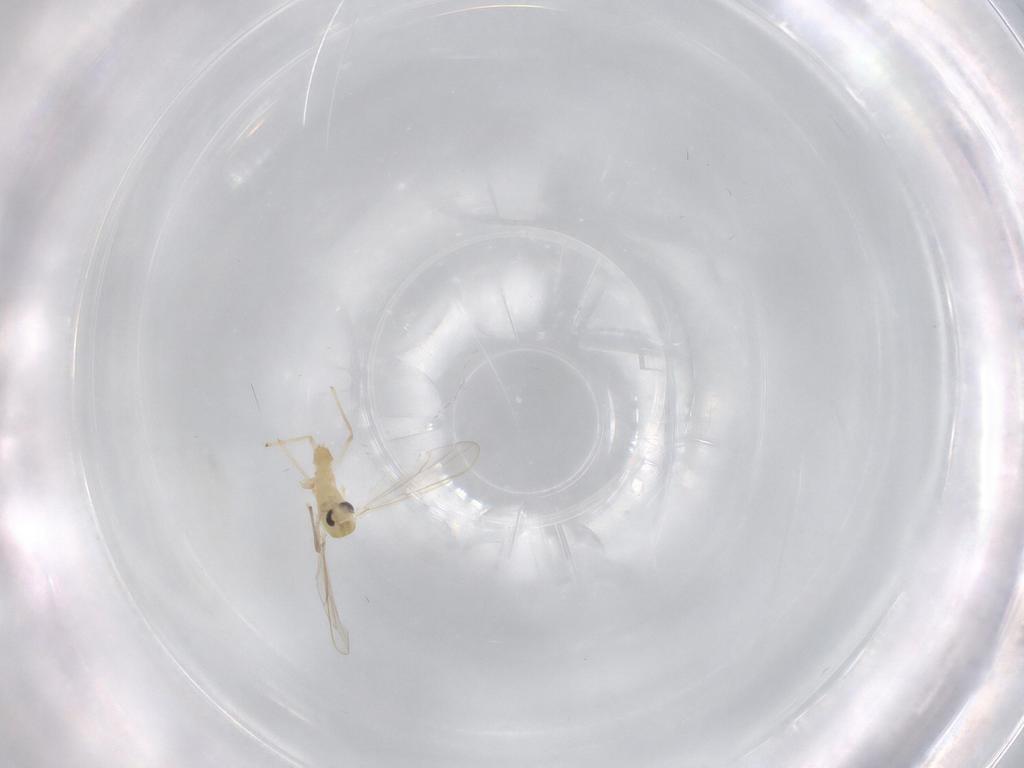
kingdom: Animalia
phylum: Arthropoda
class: Insecta
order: Diptera
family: Chironomidae
